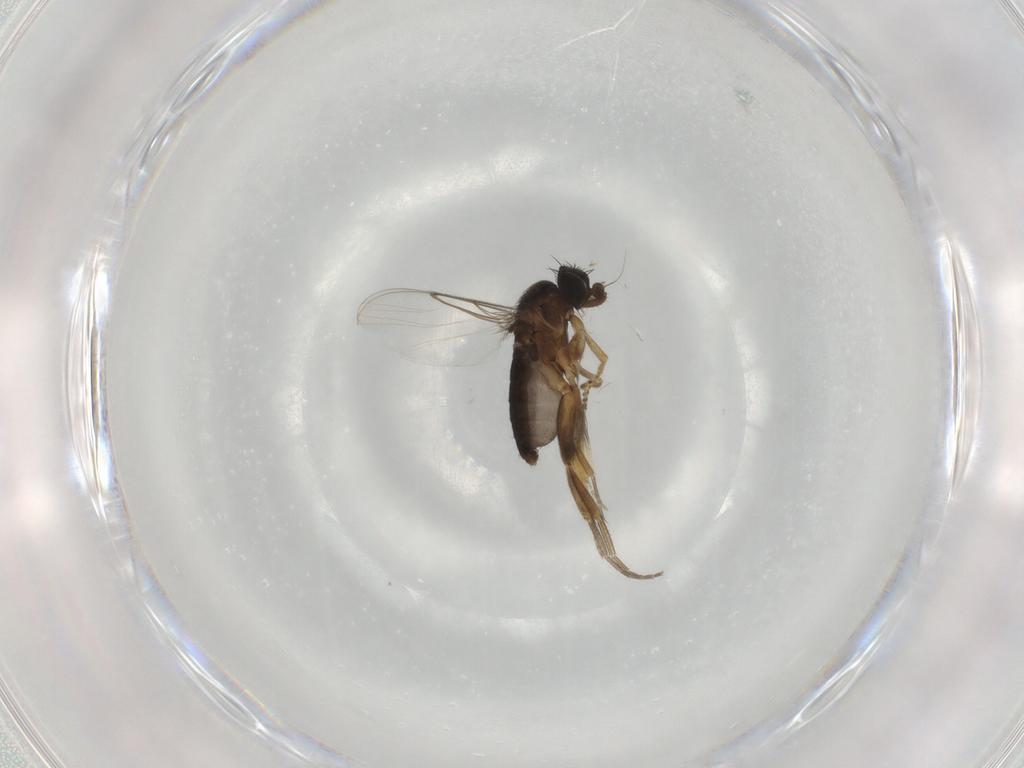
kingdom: Animalia
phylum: Arthropoda
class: Insecta
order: Diptera
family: Phoridae
